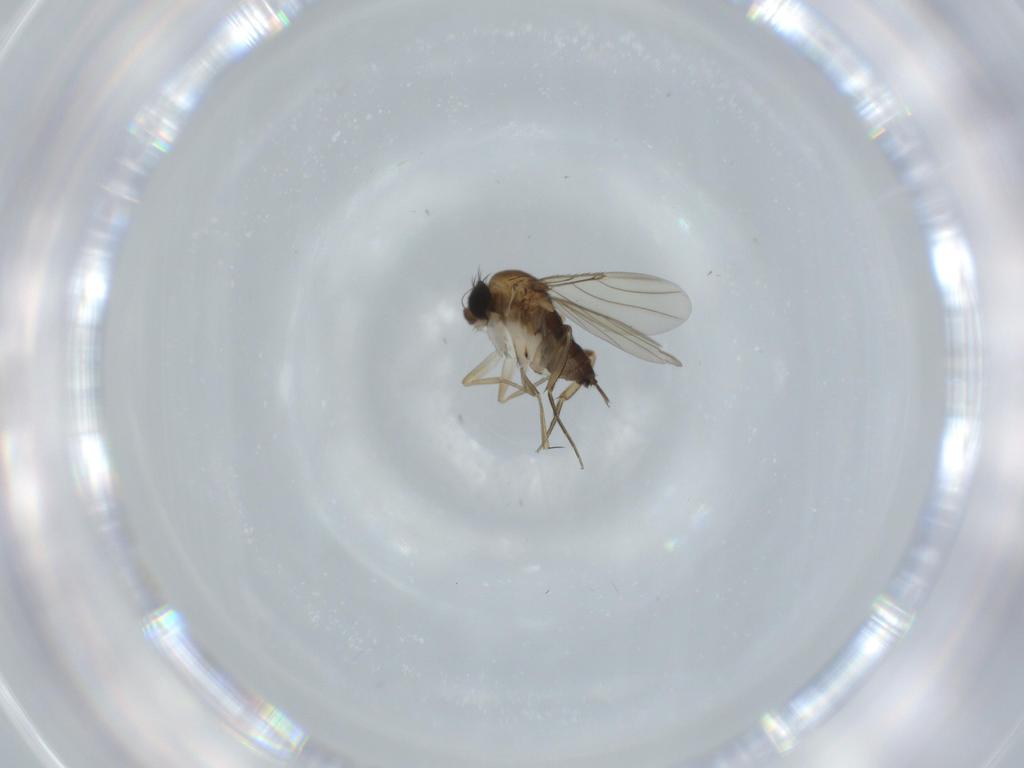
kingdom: Animalia
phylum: Arthropoda
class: Insecta
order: Diptera
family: Phoridae
